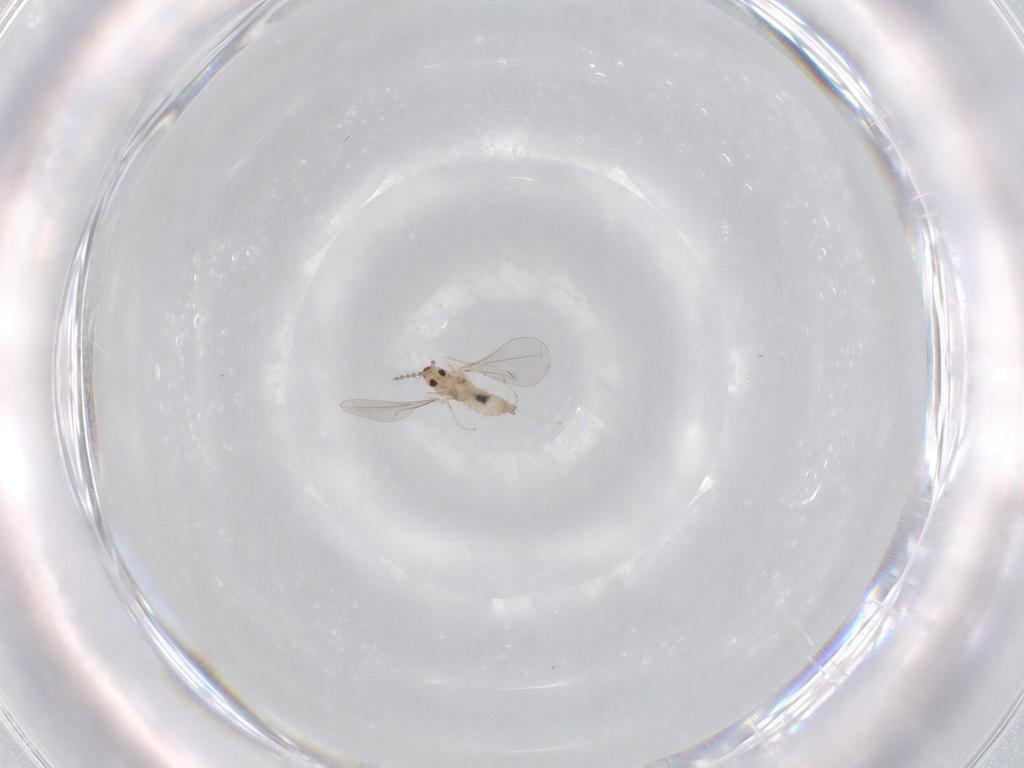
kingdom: Animalia
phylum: Arthropoda
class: Insecta
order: Diptera
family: Cecidomyiidae
